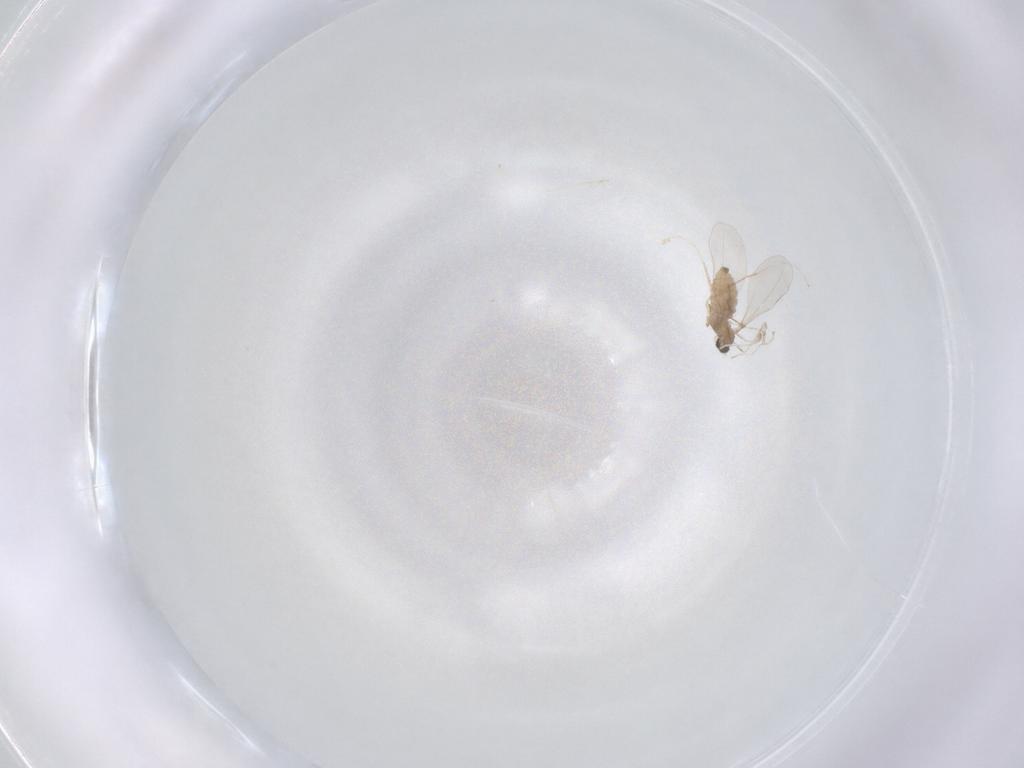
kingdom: Animalia
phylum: Arthropoda
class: Insecta
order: Diptera
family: Cecidomyiidae
